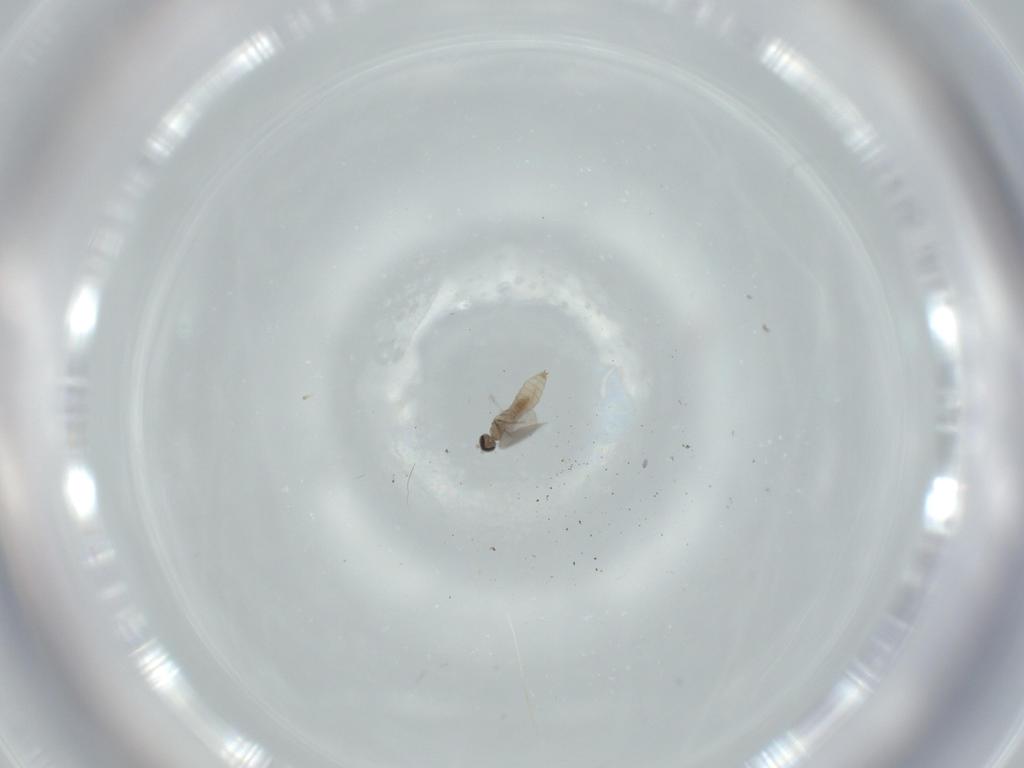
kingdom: Animalia
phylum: Arthropoda
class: Insecta
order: Diptera
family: Cecidomyiidae
